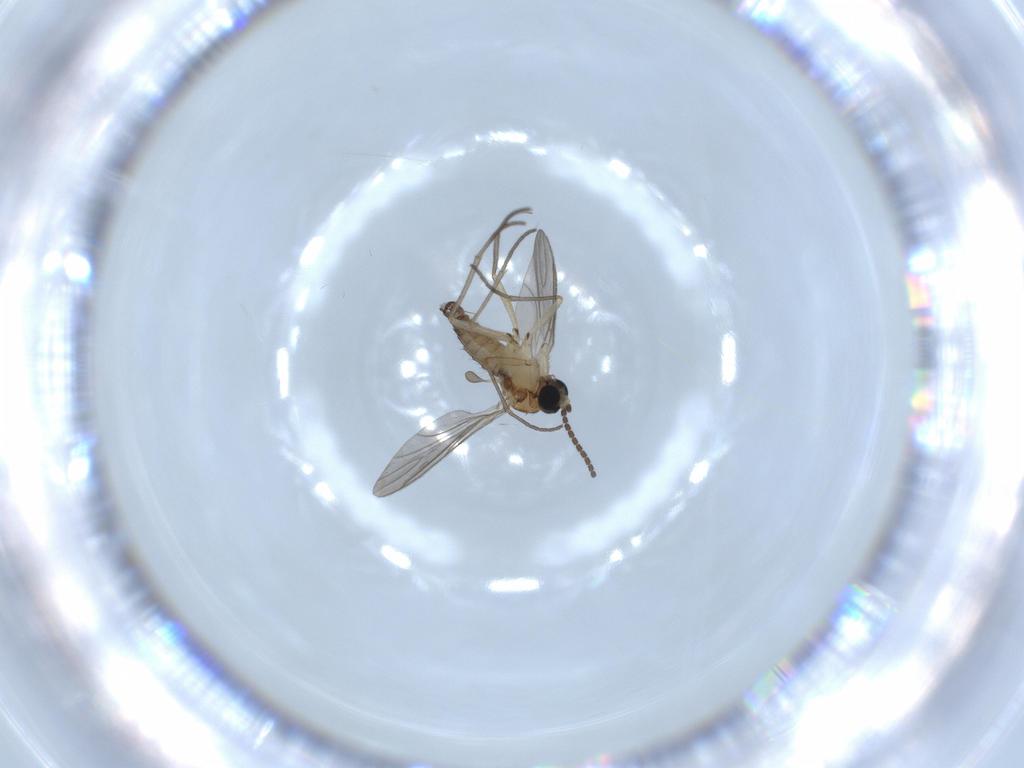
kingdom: Animalia
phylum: Arthropoda
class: Insecta
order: Diptera
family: Sciaridae
